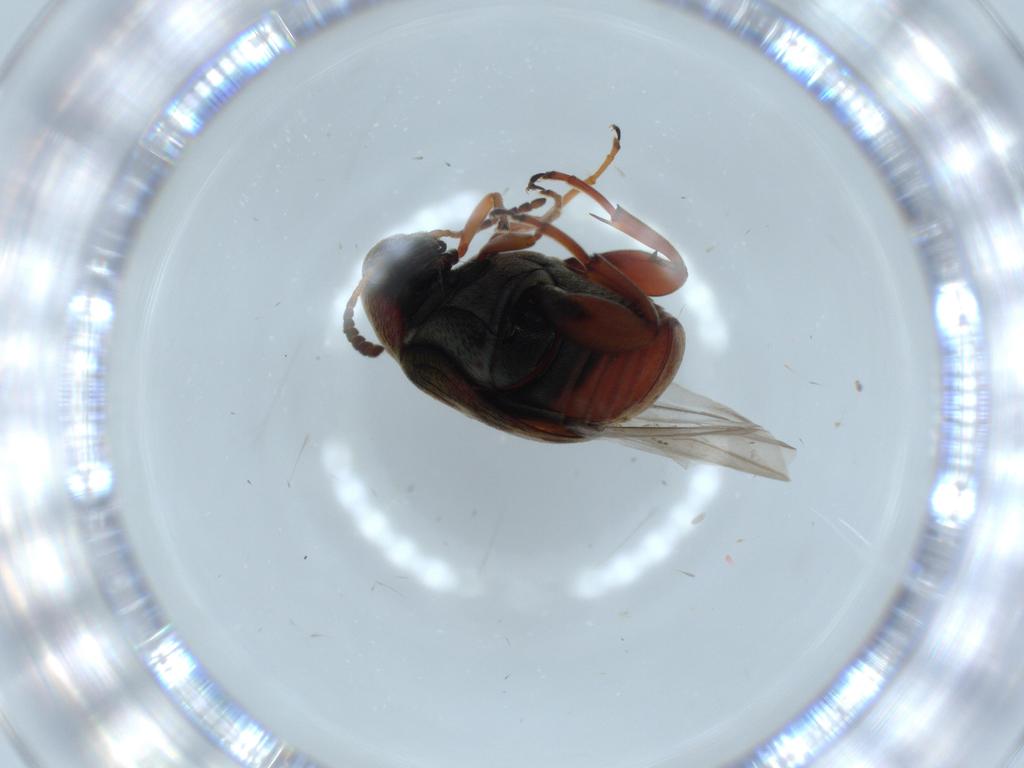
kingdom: Animalia
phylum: Arthropoda
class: Insecta
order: Coleoptera
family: Chrysomelidae
